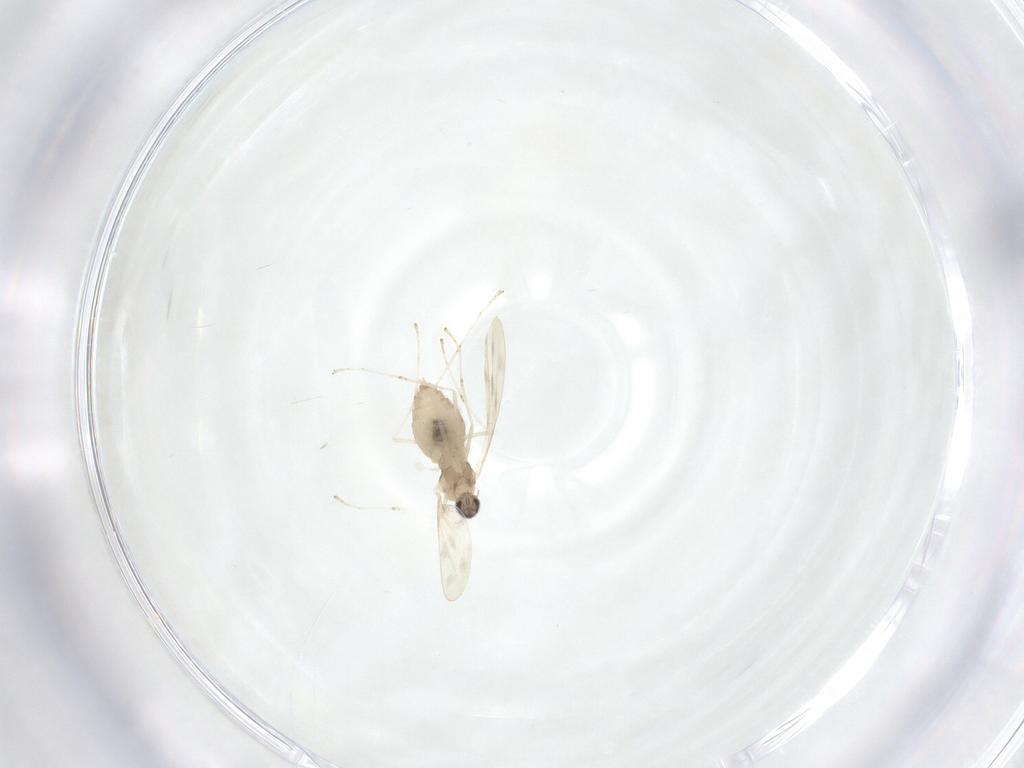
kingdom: Animalia
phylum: Arthropoda
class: Insecta
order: Diptera
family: Cecidomyiidae
